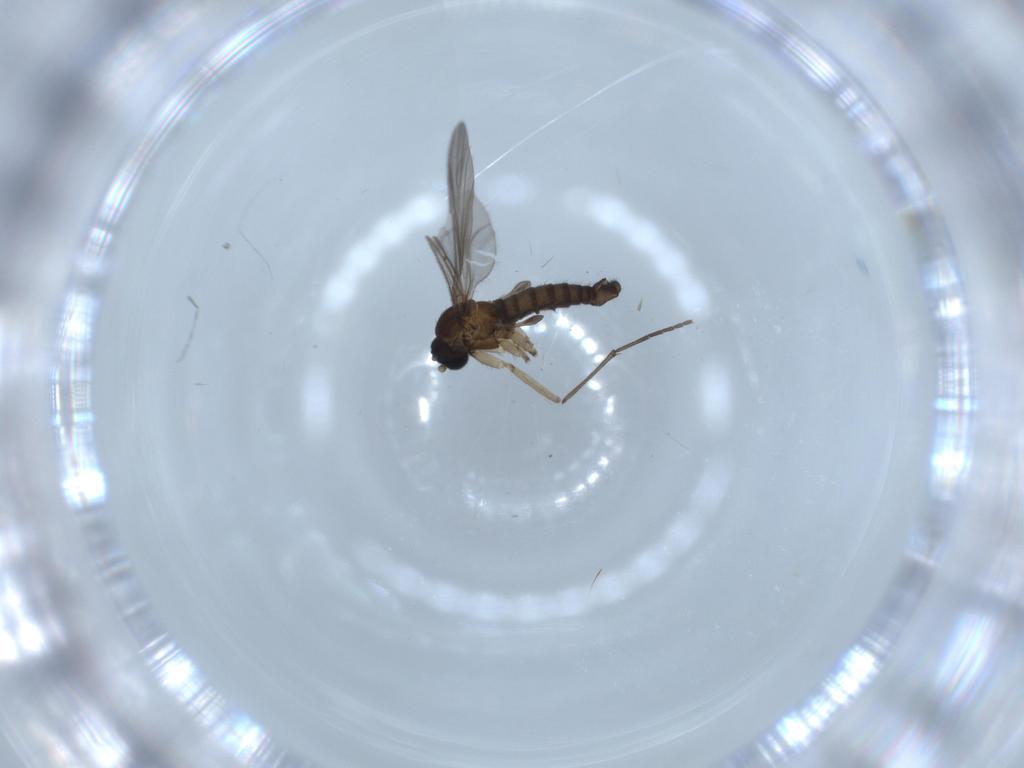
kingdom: Animalia
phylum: Arthropoda
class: Insecta
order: Diptera
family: Sciaridae
